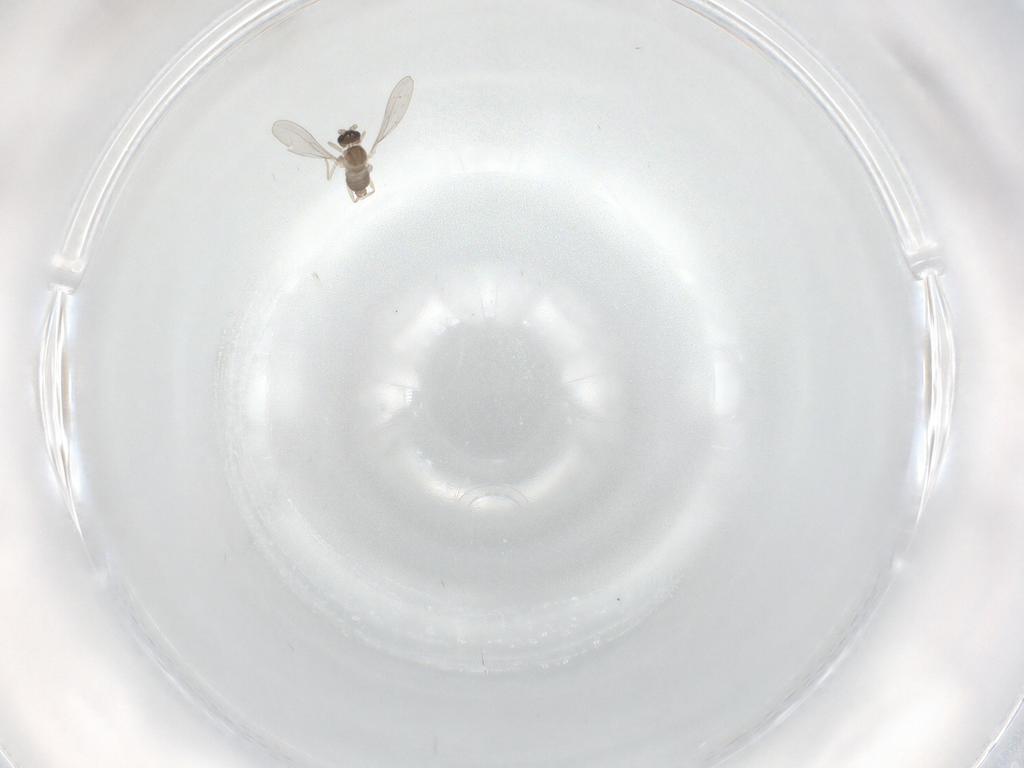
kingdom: Animalia
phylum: Arthropoda
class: Insecta
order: Diptera
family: Cecidomyiidae
